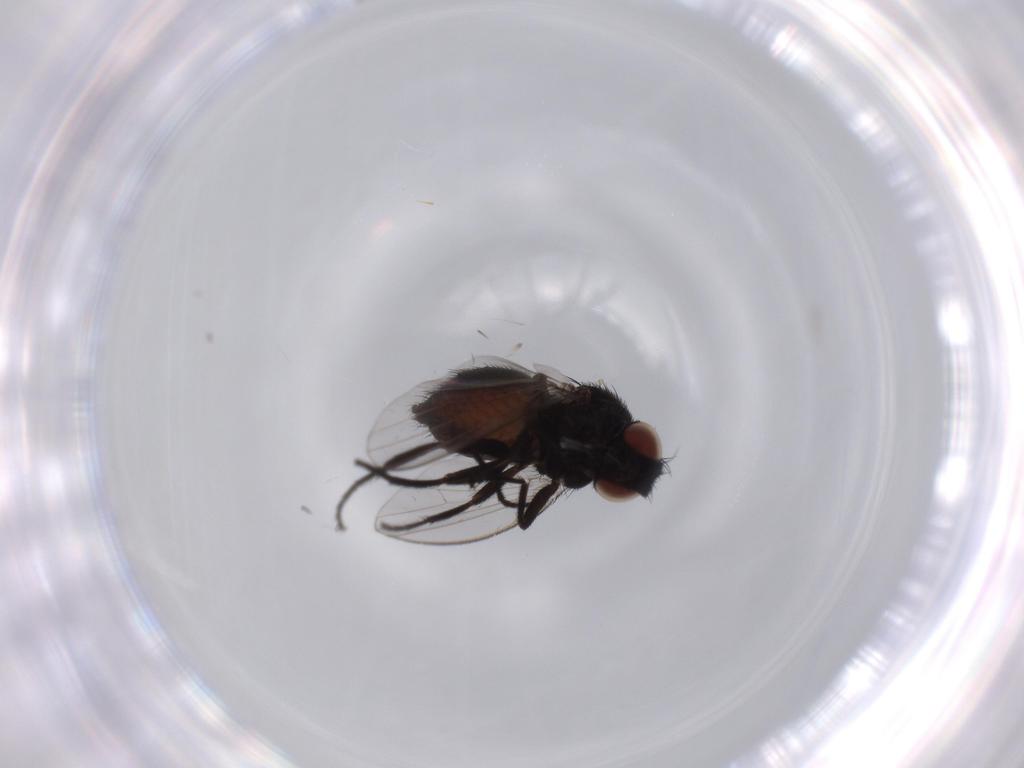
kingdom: Animalia
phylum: Arthropoda
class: Insecta
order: Diptera
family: Milichiidae
